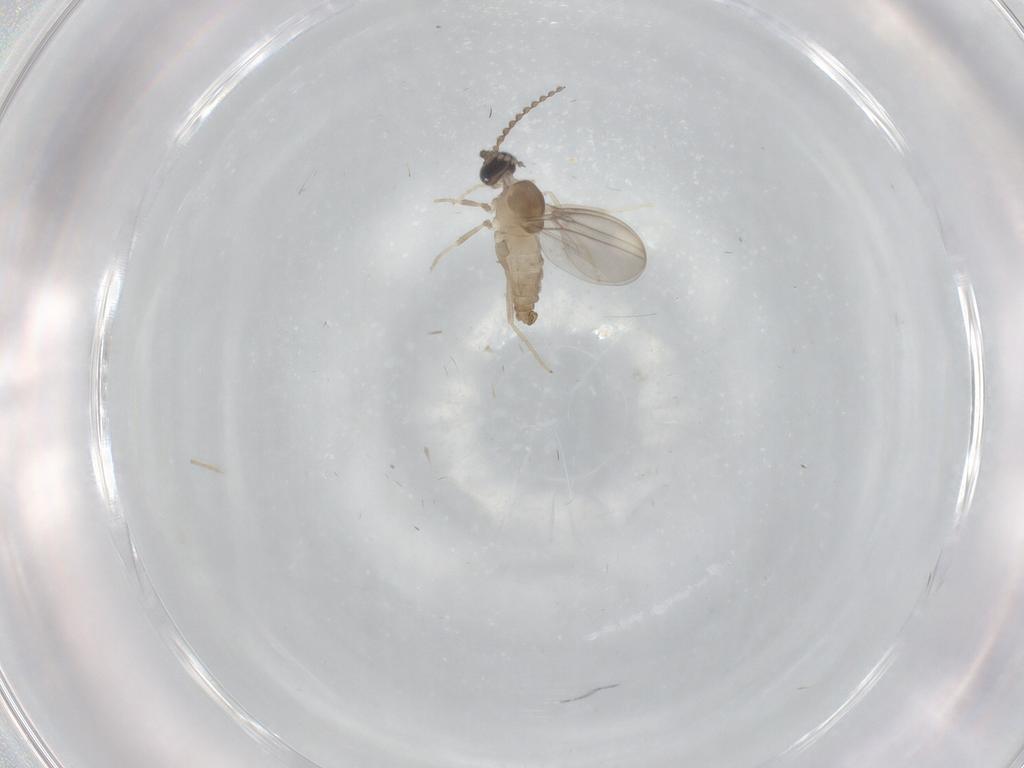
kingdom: Animalia
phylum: Arthropoda
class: Insecta
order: Diptera
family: Cecidomyiidae
